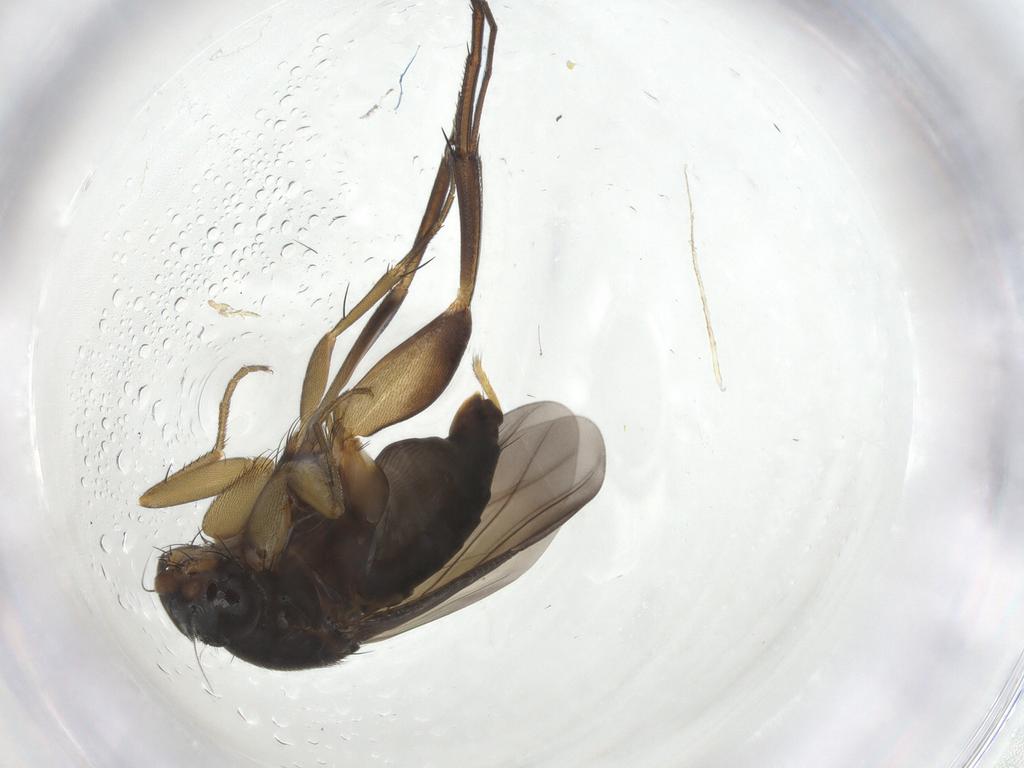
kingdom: Animalia
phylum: Arthropoda
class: Insecta
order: Diptera
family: Phoridae
